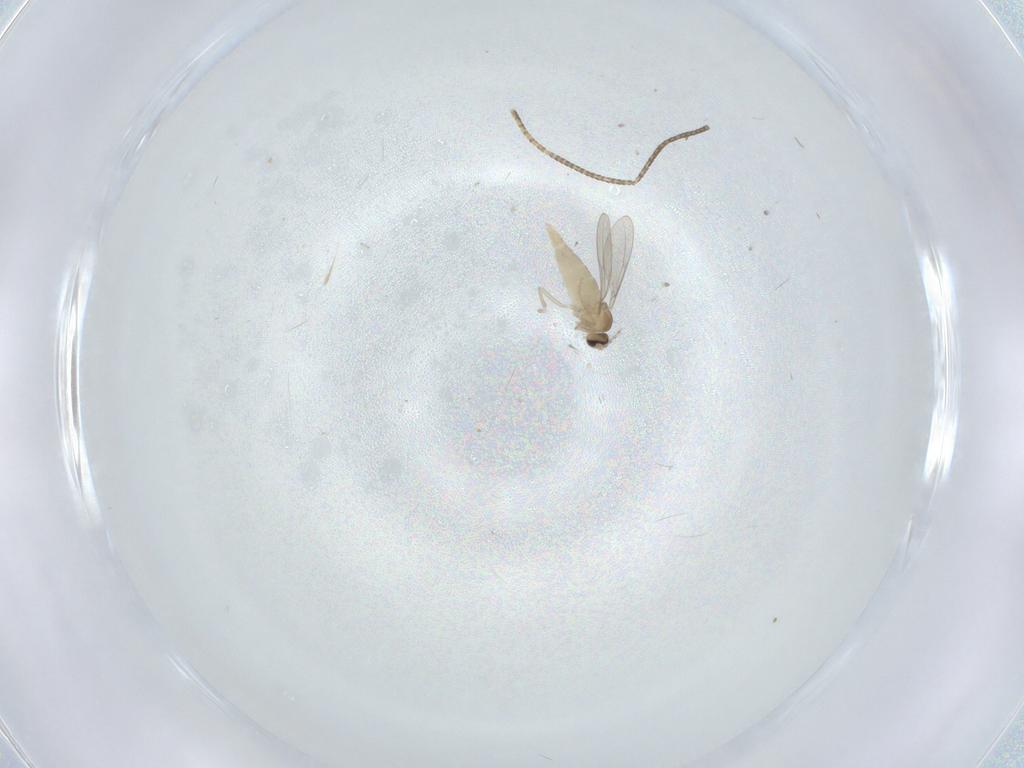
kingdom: Animalia
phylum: Arthropoda
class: Insecta
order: Diptera
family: Cecidomyiidae
